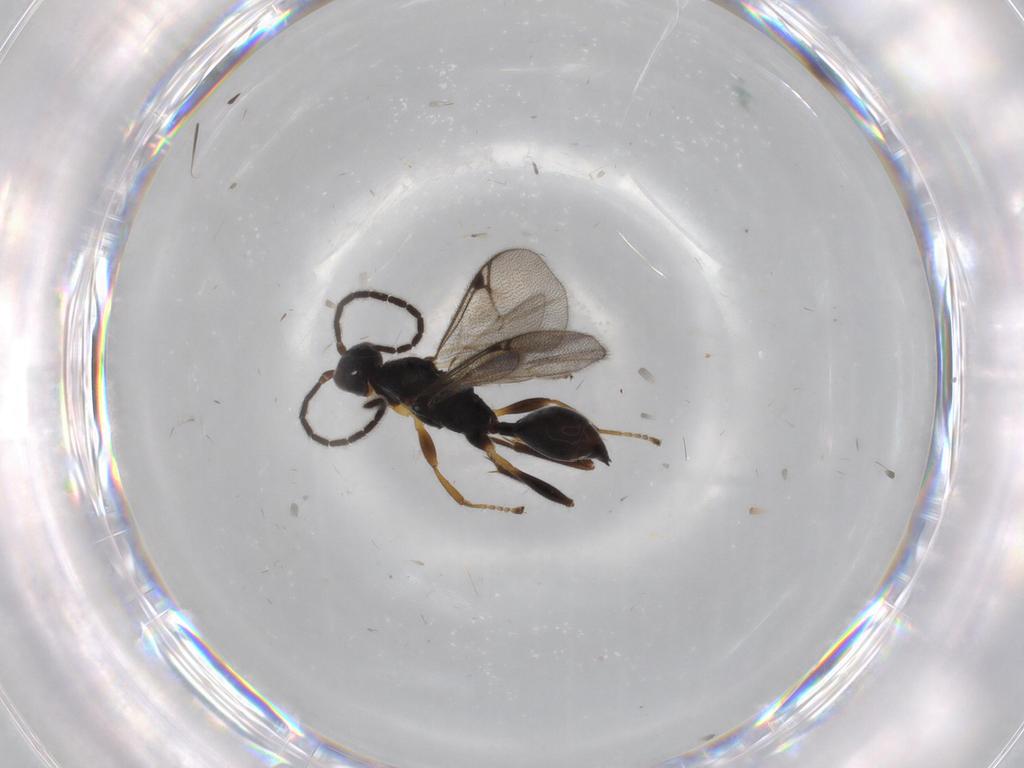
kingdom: Animalia
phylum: Arthropoda
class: Insecta
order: Hymenoptera
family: Proctotrupidae
